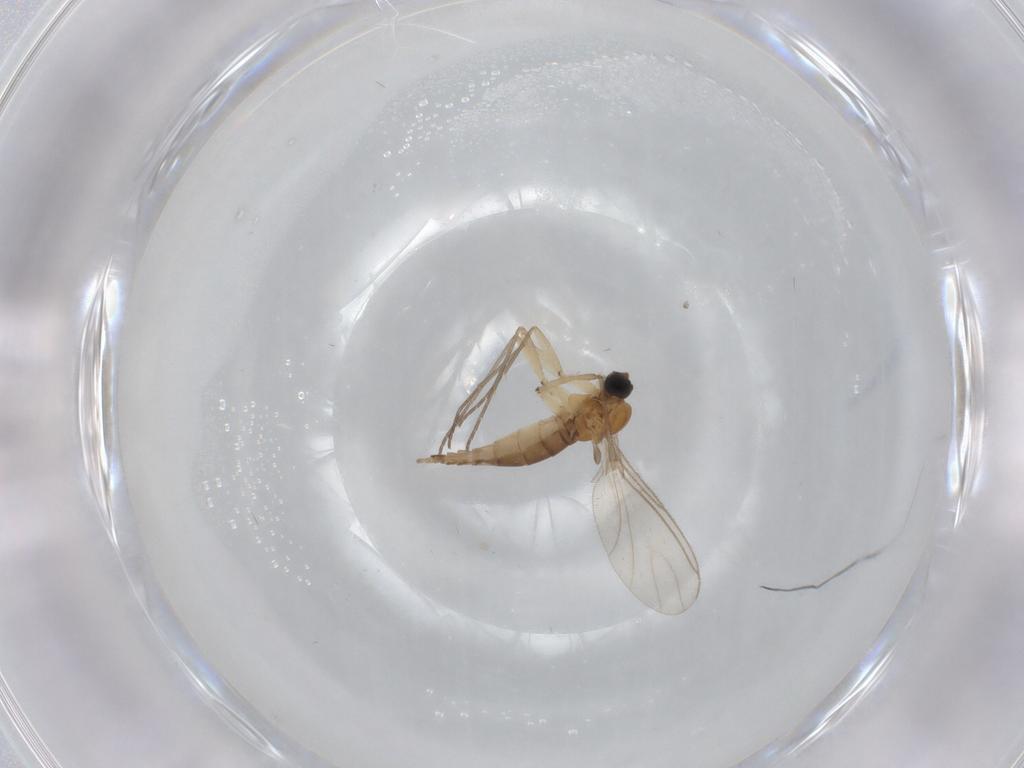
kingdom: Animalia
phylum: Arthropoda
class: Insecta
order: Diptera
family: Sciaridae
